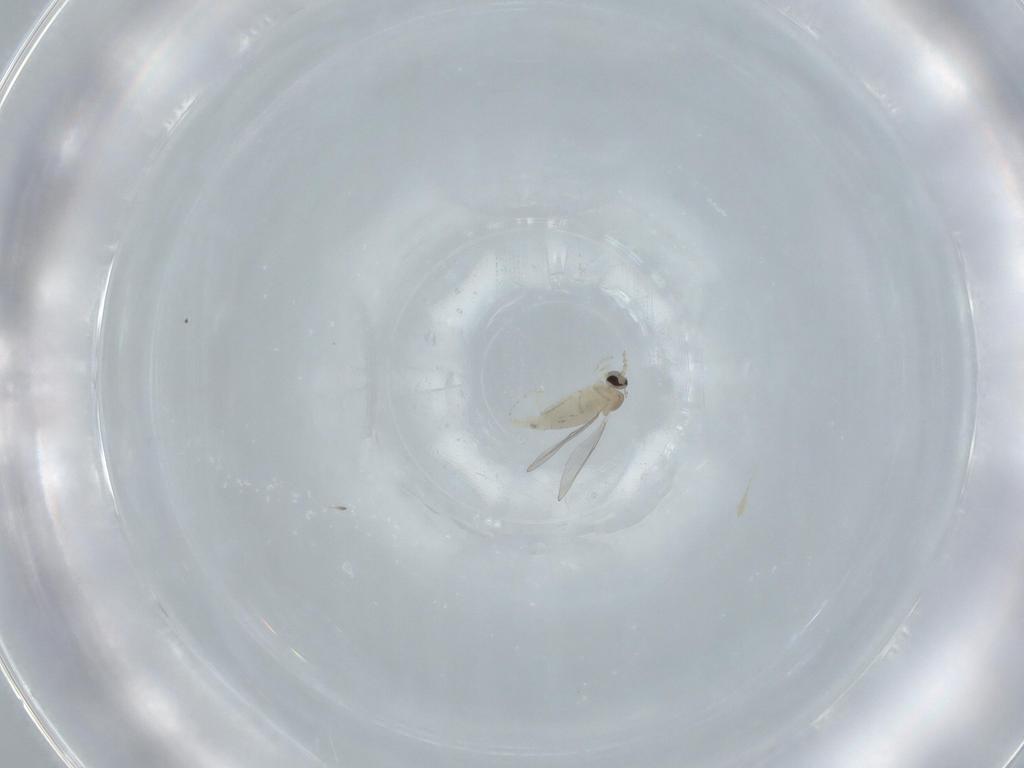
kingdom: Animalia
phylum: Arthropoda
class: Insecta
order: Diptera
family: Cecidomyiidae
